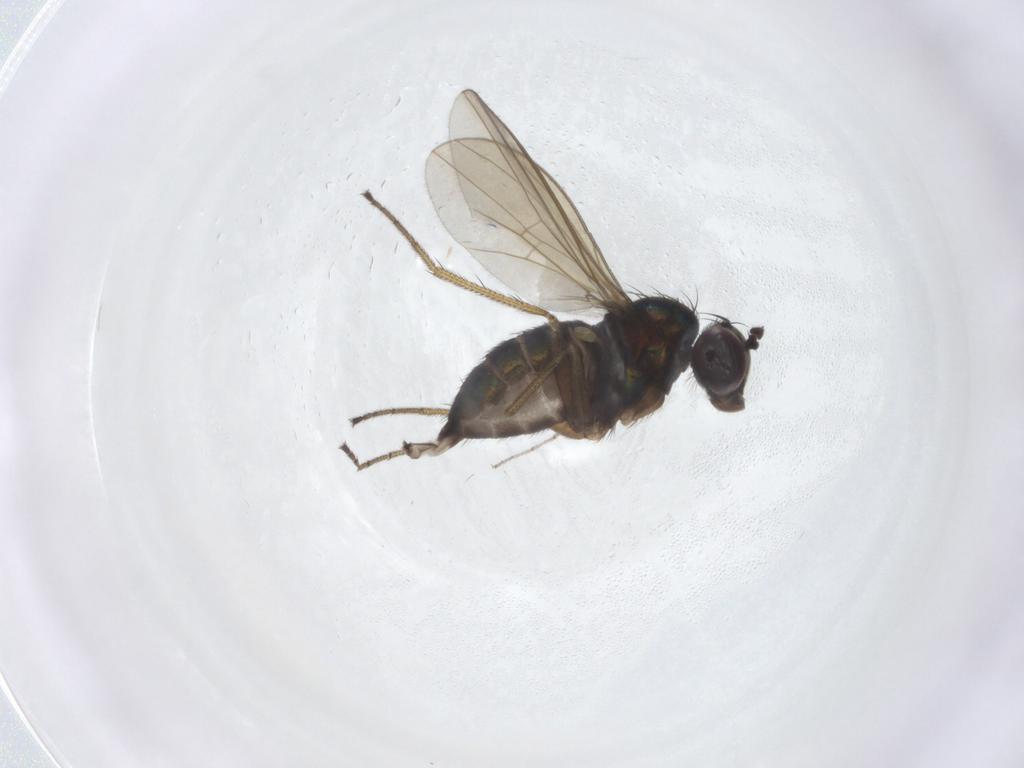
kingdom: Animalia
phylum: Arthropoda
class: Insecta
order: Diptera
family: Dolichopodidae
